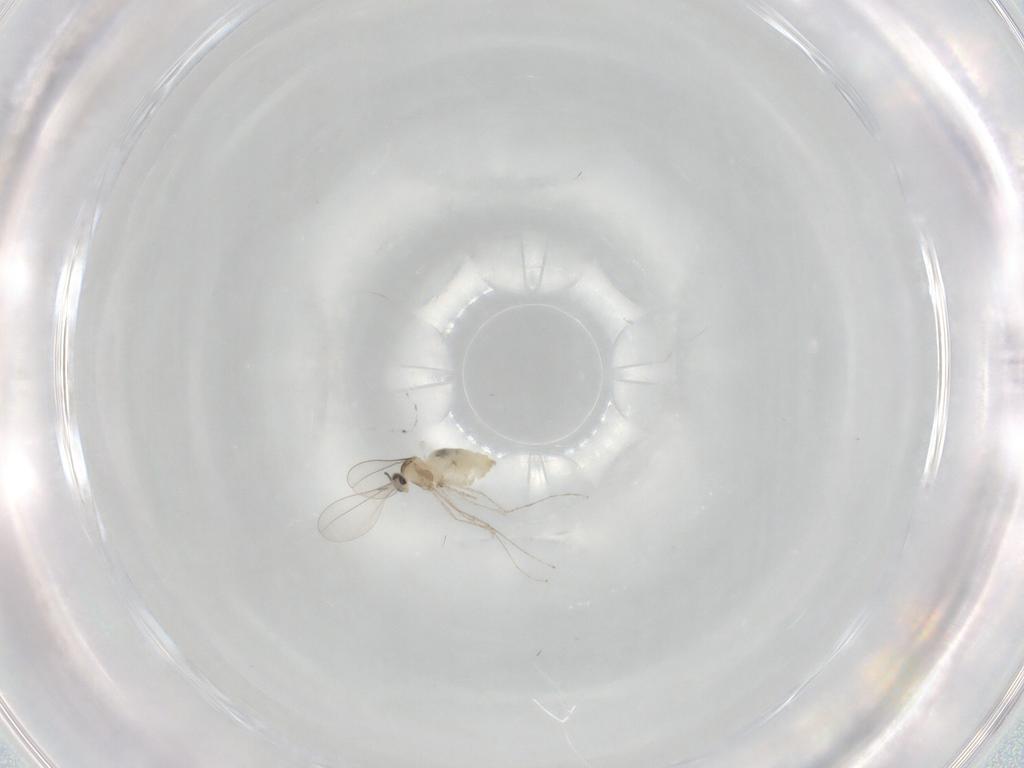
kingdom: Animalia
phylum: Arthropoda
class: Insecta
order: Diptera
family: Cecidomyiidae
